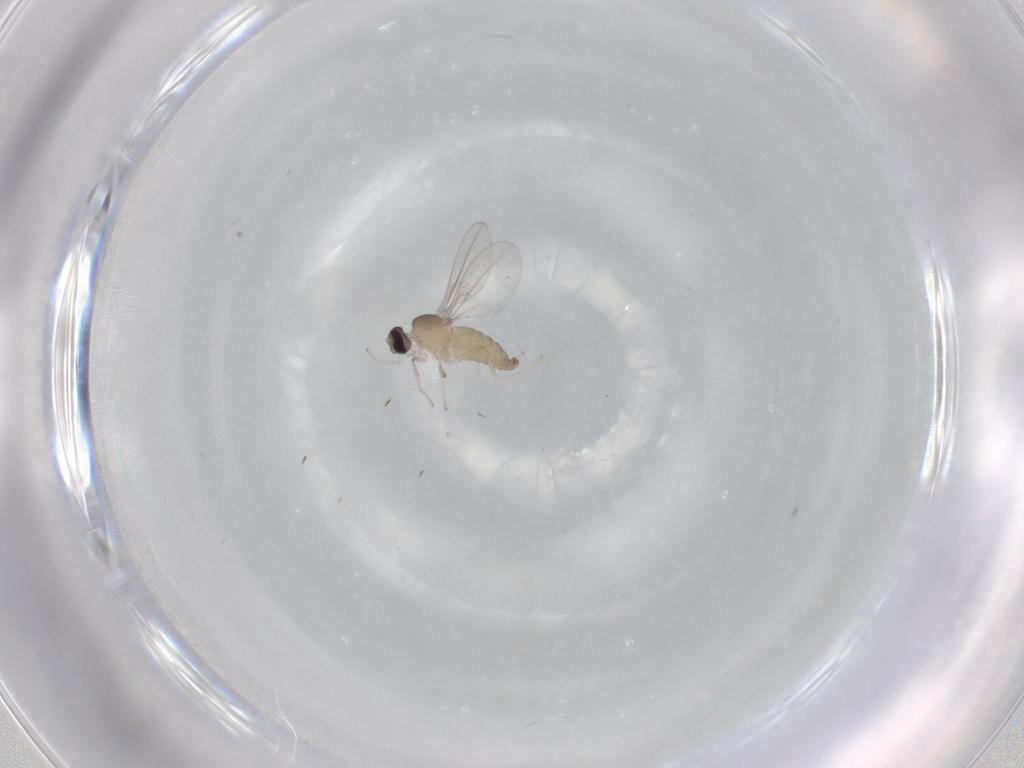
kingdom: Animalia
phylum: Arthropoda
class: Insecta
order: Diptera
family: Cecidomyiidae
